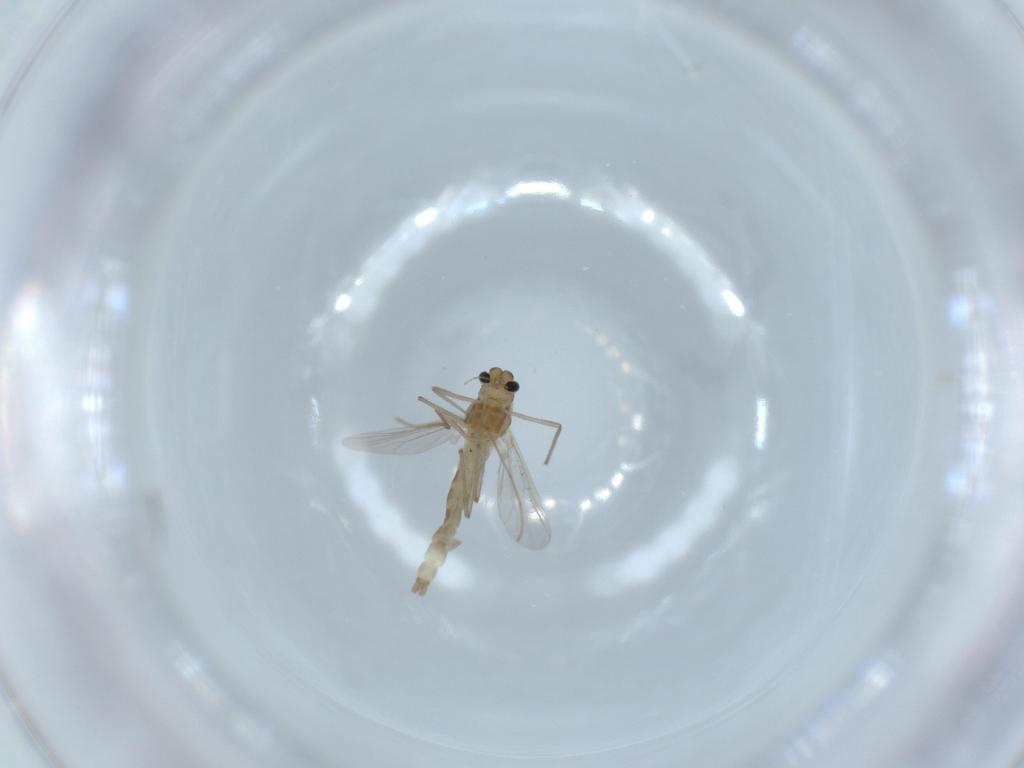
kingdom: Animalia
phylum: Arthropoda
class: Insecta
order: Diptera
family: Chironomidae
